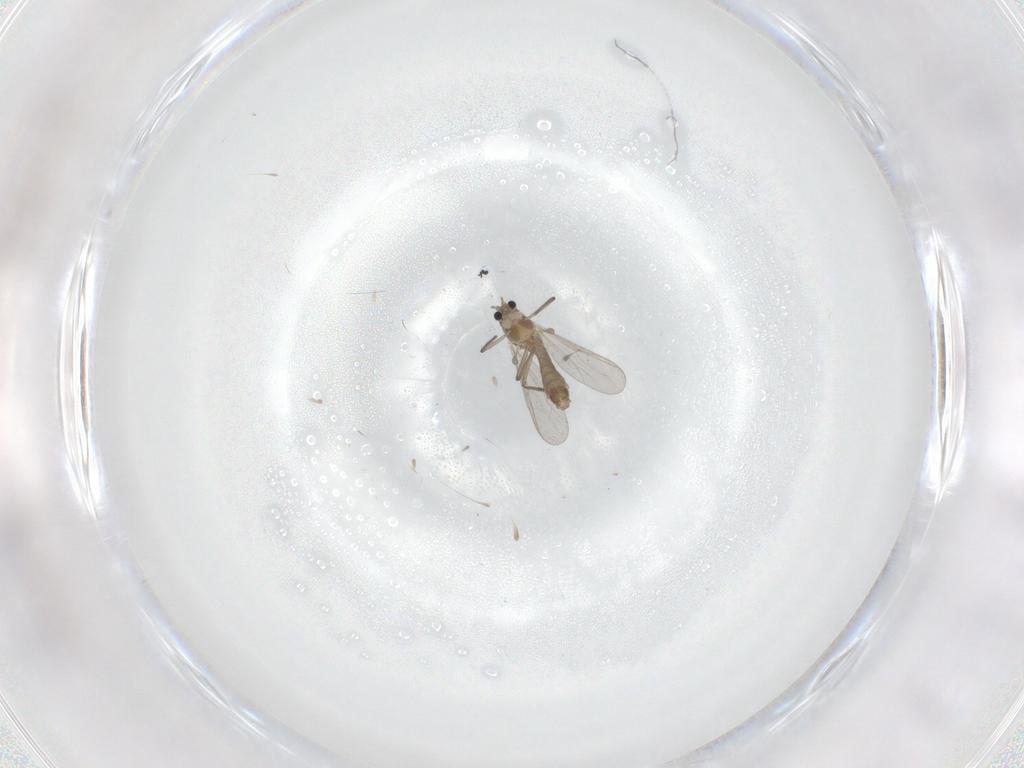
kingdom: Animalia
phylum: Arthropoda
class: Insecta
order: Diptera
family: Chironomidae
